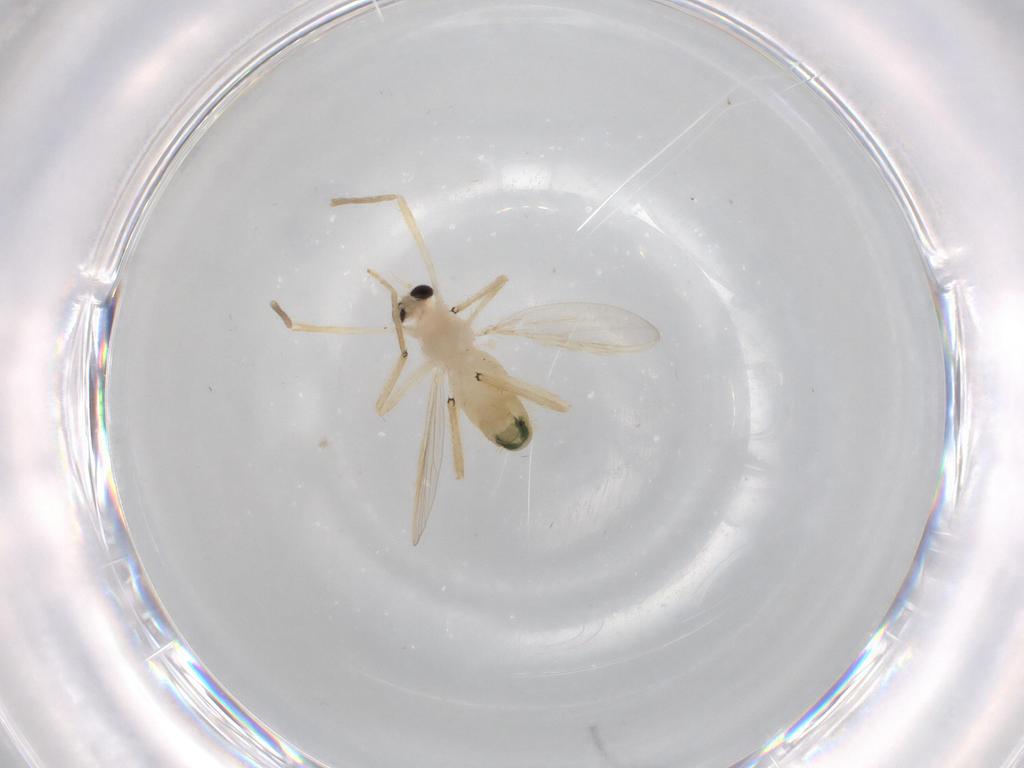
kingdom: Animalia
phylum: Arthropoda
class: Insecta
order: Diptera
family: Chironomidae
